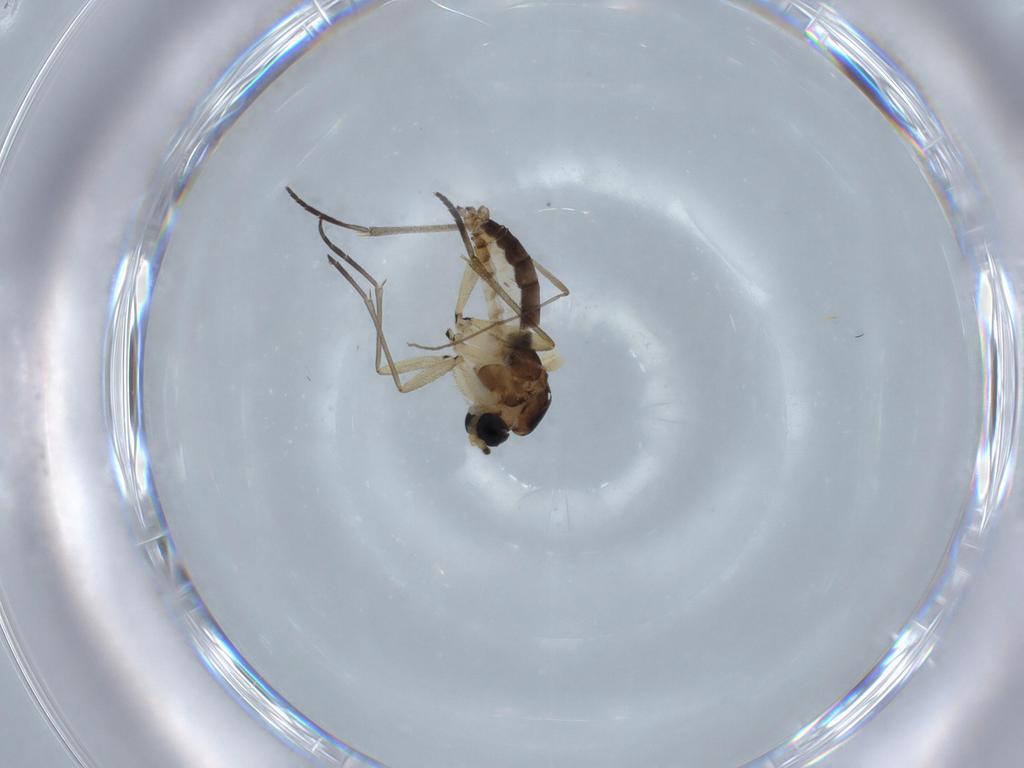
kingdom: Animalia
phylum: Arthropoda
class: Insecta
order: Diptera
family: Sciaridae
